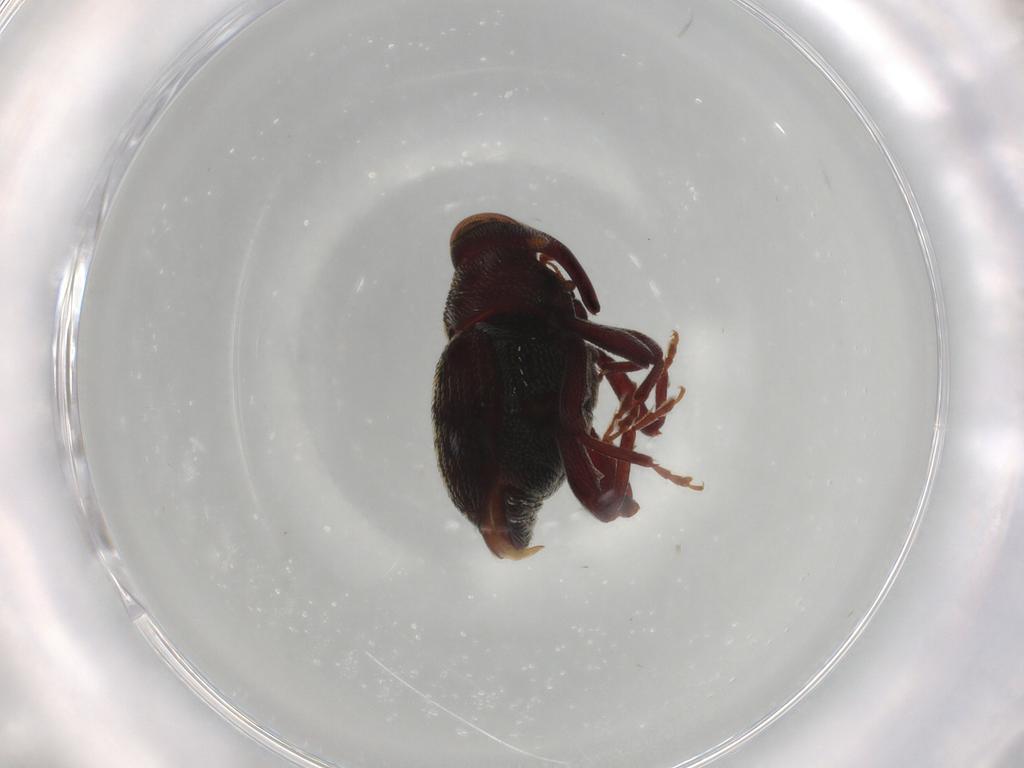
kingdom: Animalia
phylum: Arthropoda
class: Insecta
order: Coleoptera
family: Curculionidae
